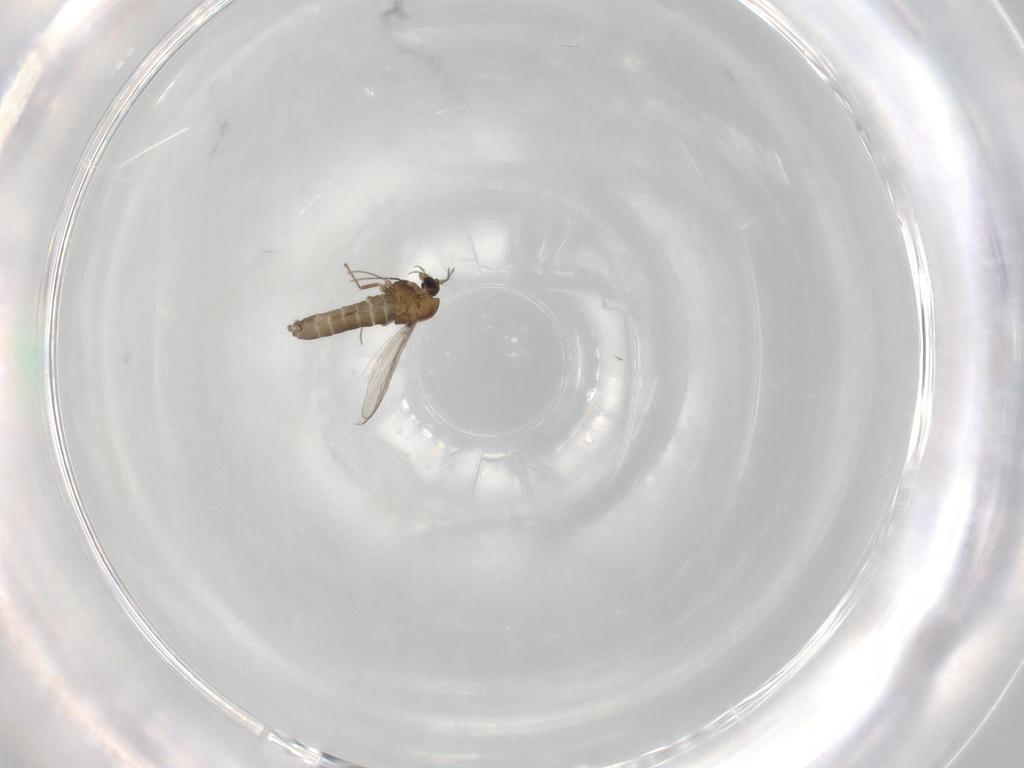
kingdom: Animalia
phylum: Arthropoda
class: Insecta
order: Diptera
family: Chironomidae
